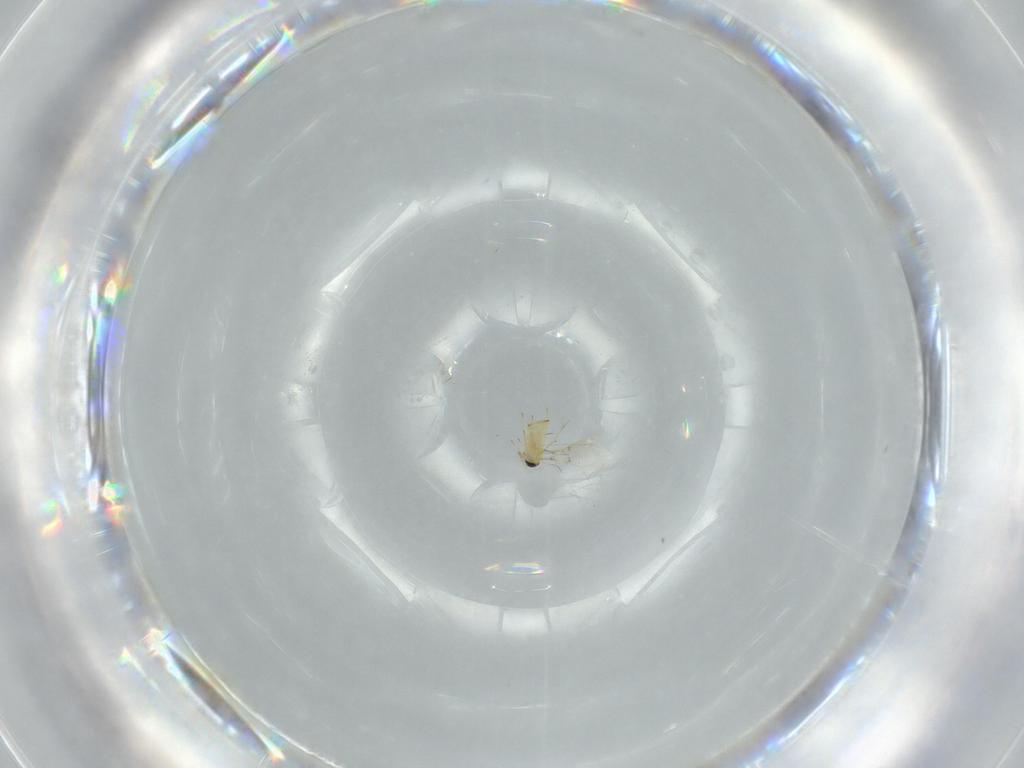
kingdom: Animalia
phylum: Arthropoda
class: Insecta
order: Hymenoptera
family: Trichogrammatidae
